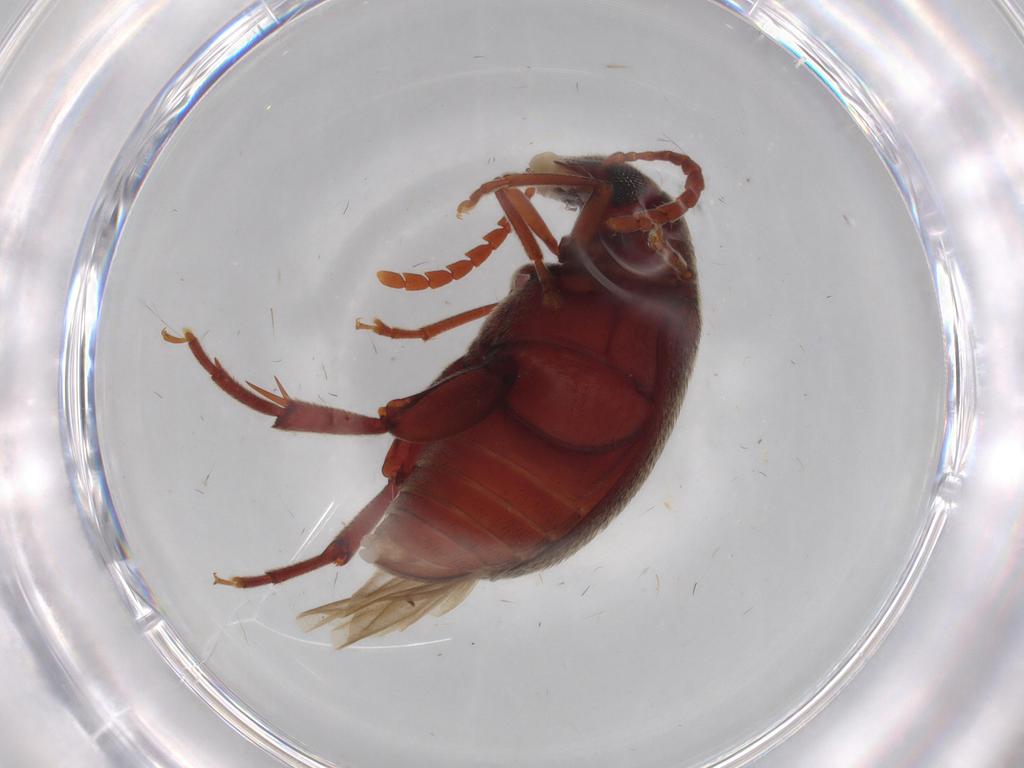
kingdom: Animalia
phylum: Arthropoda
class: Insecta
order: Coleoptera
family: Chrysomelidae
